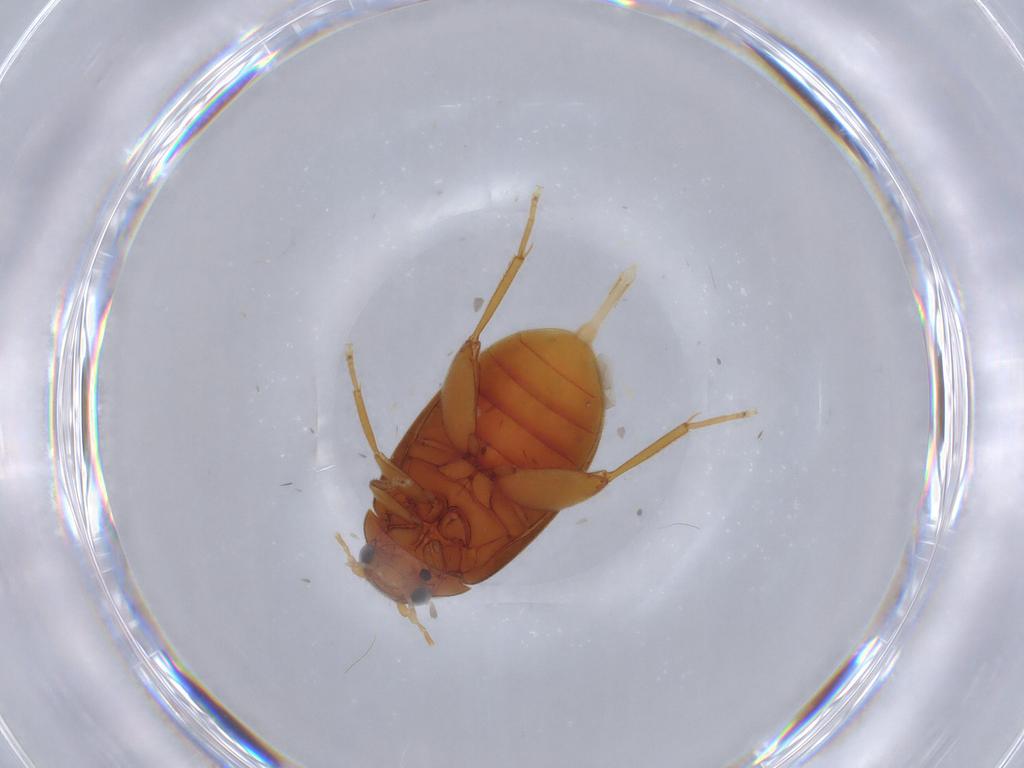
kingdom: Animalia
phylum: Arthropoda
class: Insecta
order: Coleoptera
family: Scirtidae
